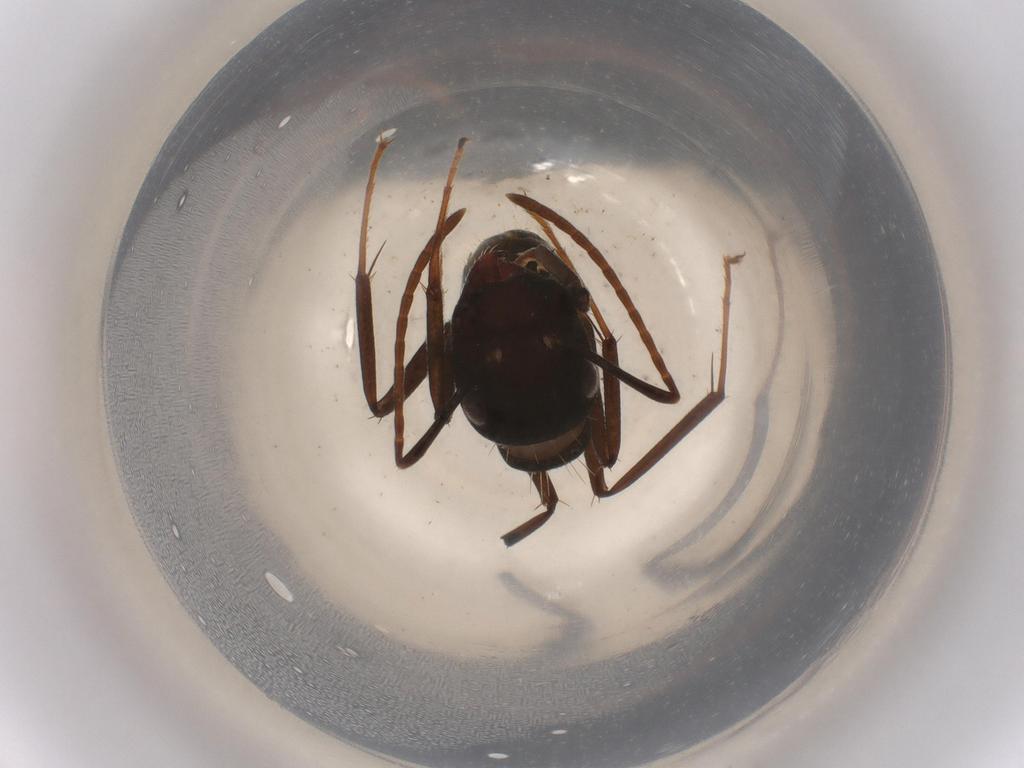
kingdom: Animalia
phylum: Arthropoda
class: Insecta
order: Hymenoptera
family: Formicidae
